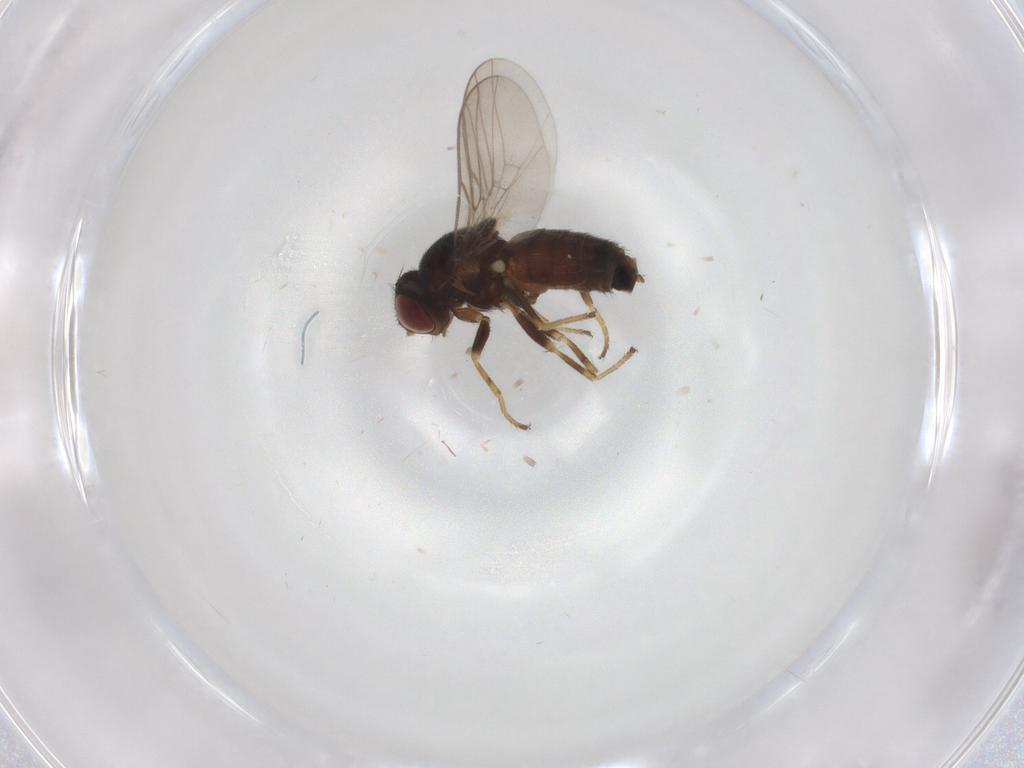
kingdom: Animalia
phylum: Arthropoda
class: Insecta
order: Diptera
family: Chloropidae
